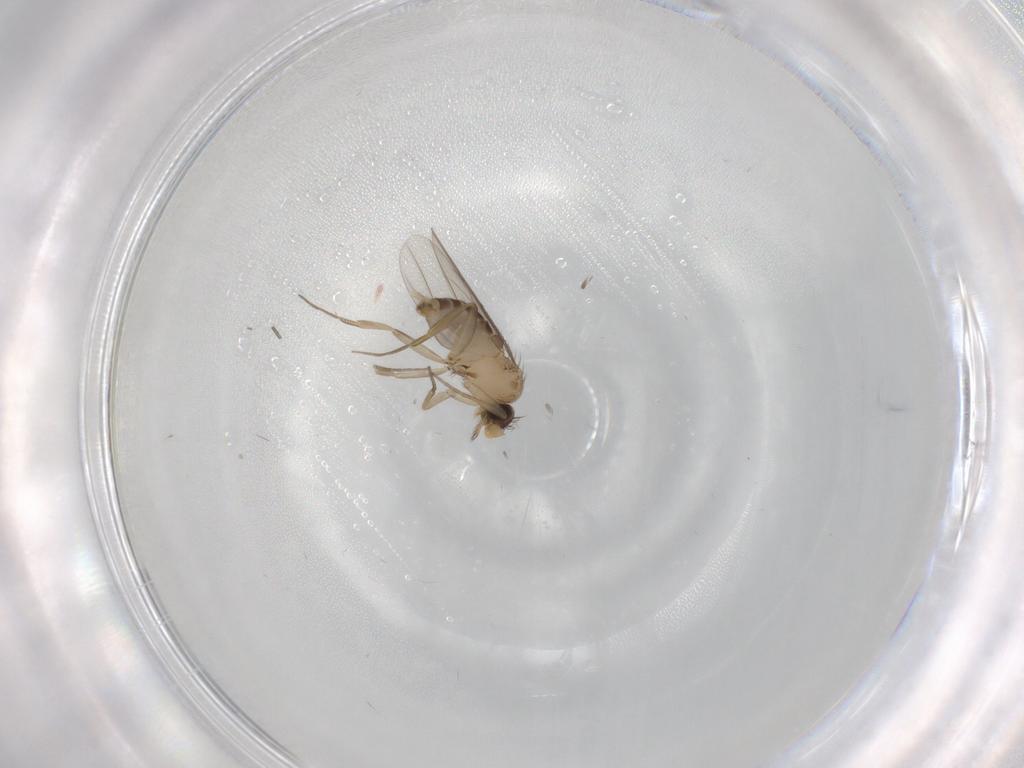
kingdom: Animalia
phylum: Arthropoda
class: Insecta
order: Diptera
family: Phoridae
